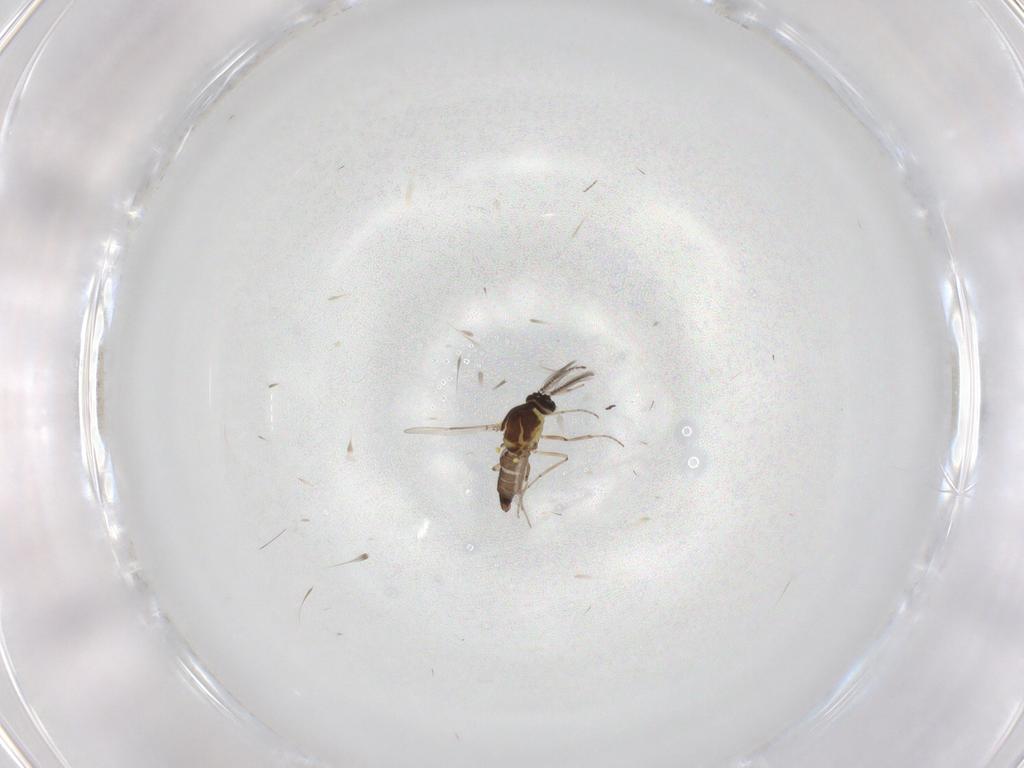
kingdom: Animalia
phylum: Arthropoda
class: Insecta
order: Diptera
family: Ceratopogonidae
